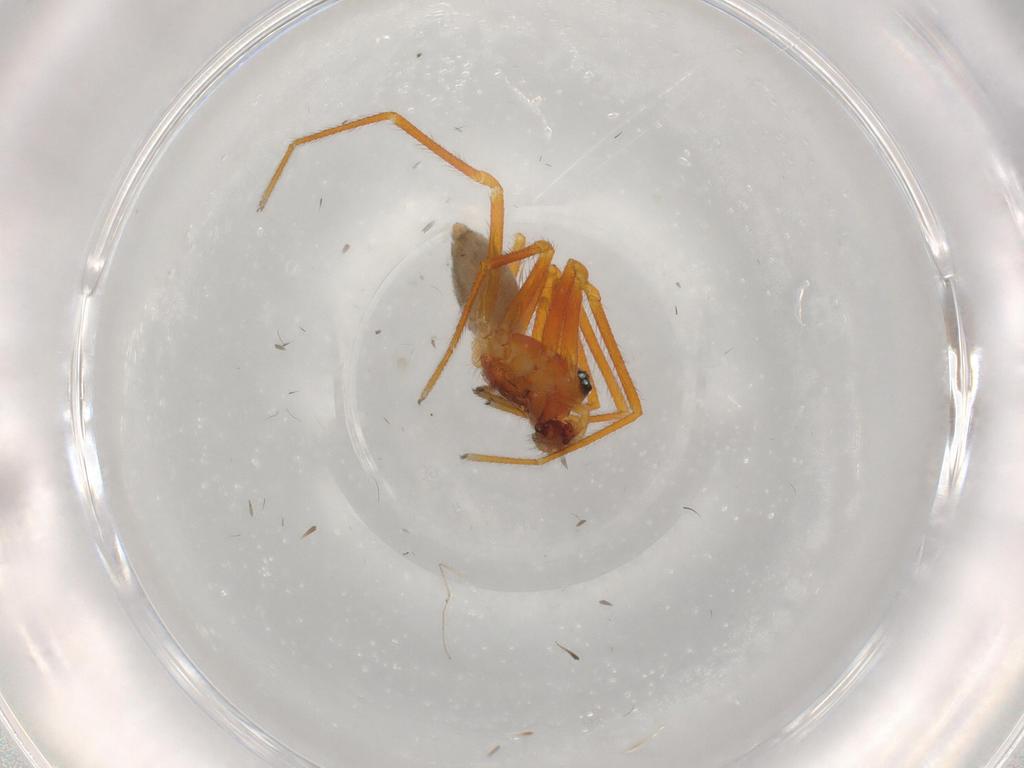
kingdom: Animalia
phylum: Arthropoda
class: Arachnida
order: Araneae
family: Linyphiidae
